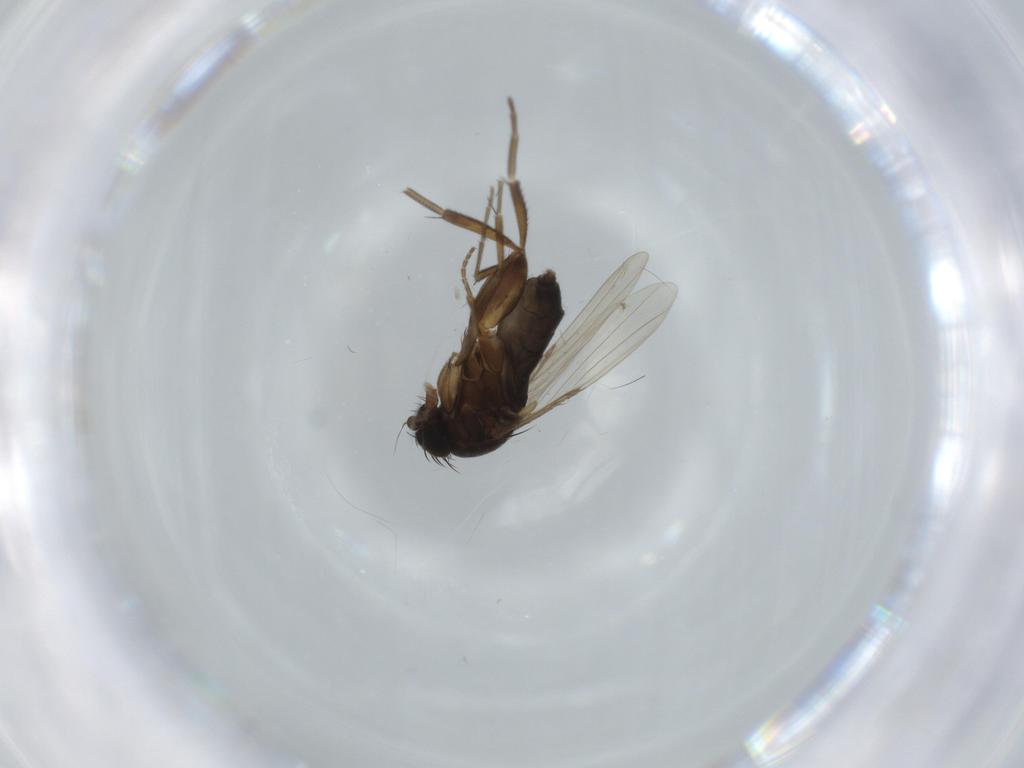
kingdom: Animalia
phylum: Arthropoda
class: Insecta
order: Diptera
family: Phoridae
